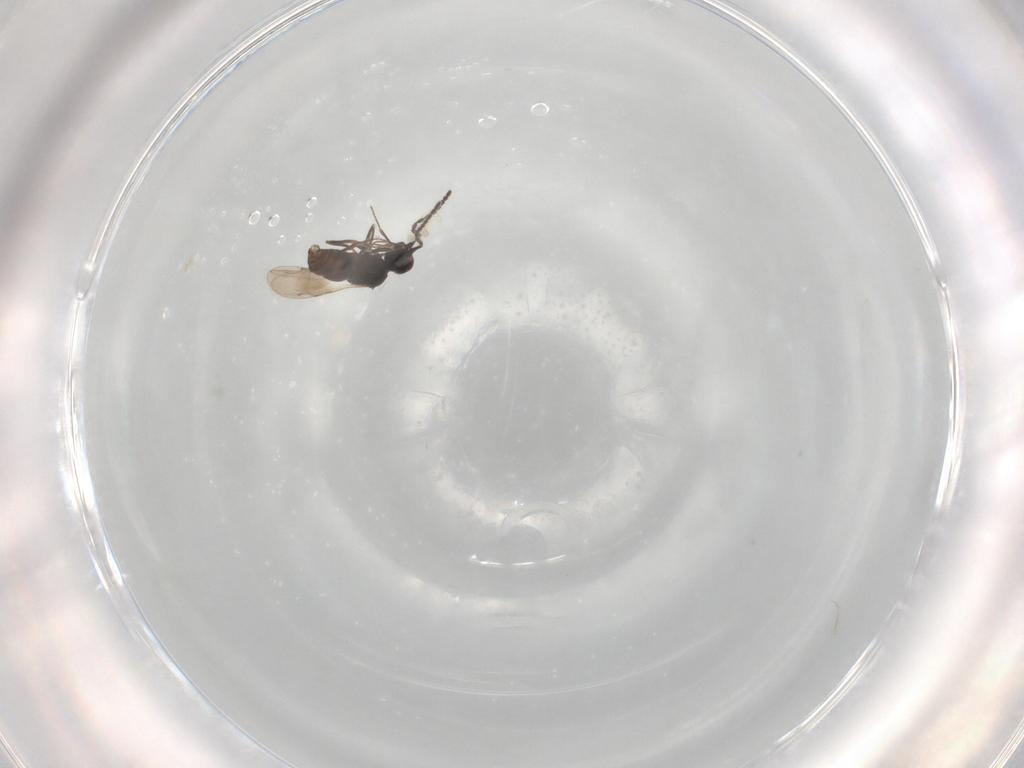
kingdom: Animalia
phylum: Arthropoda
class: Insecta
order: Hymenoptera
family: Ceraphronidae
